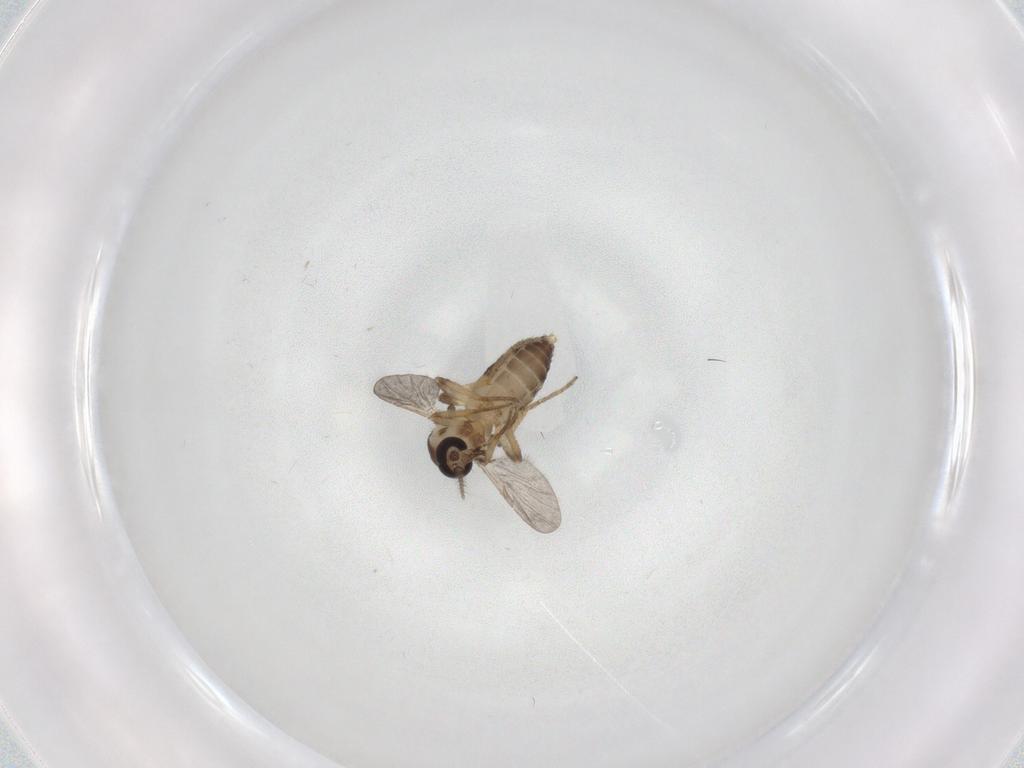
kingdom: Animalia
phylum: Arthropoda
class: Insecta
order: Diptera
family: Ceratopogonidae
